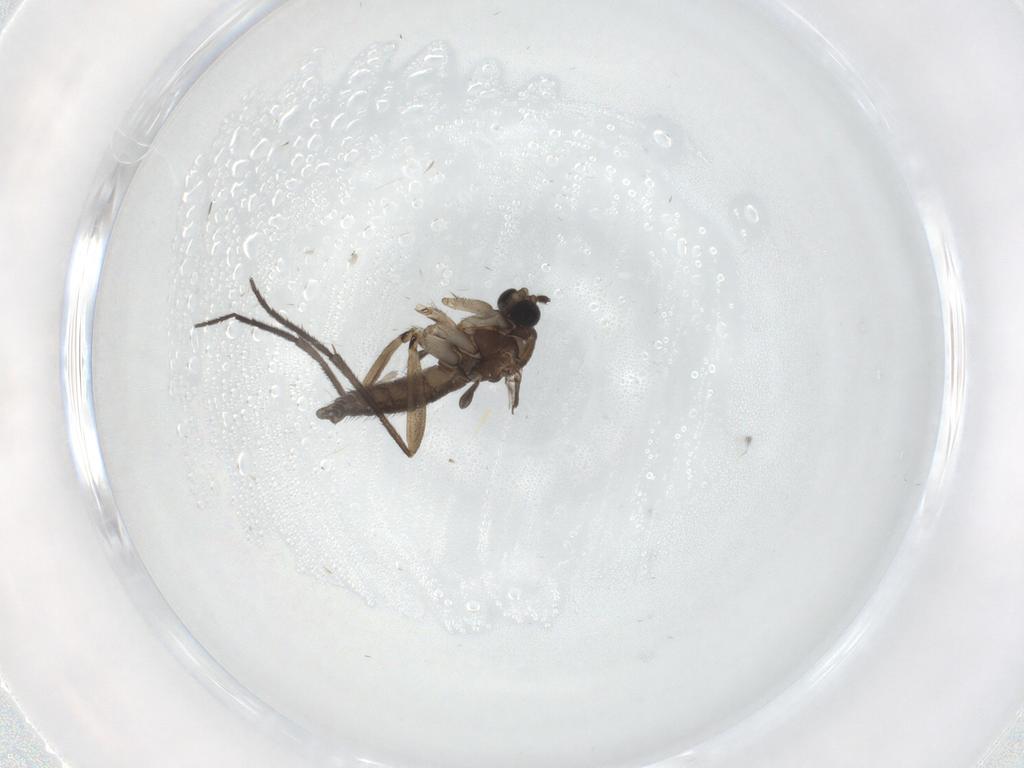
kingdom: Animalia
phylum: Arthropoda
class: Insecta
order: Diptera
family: Sciaridae
